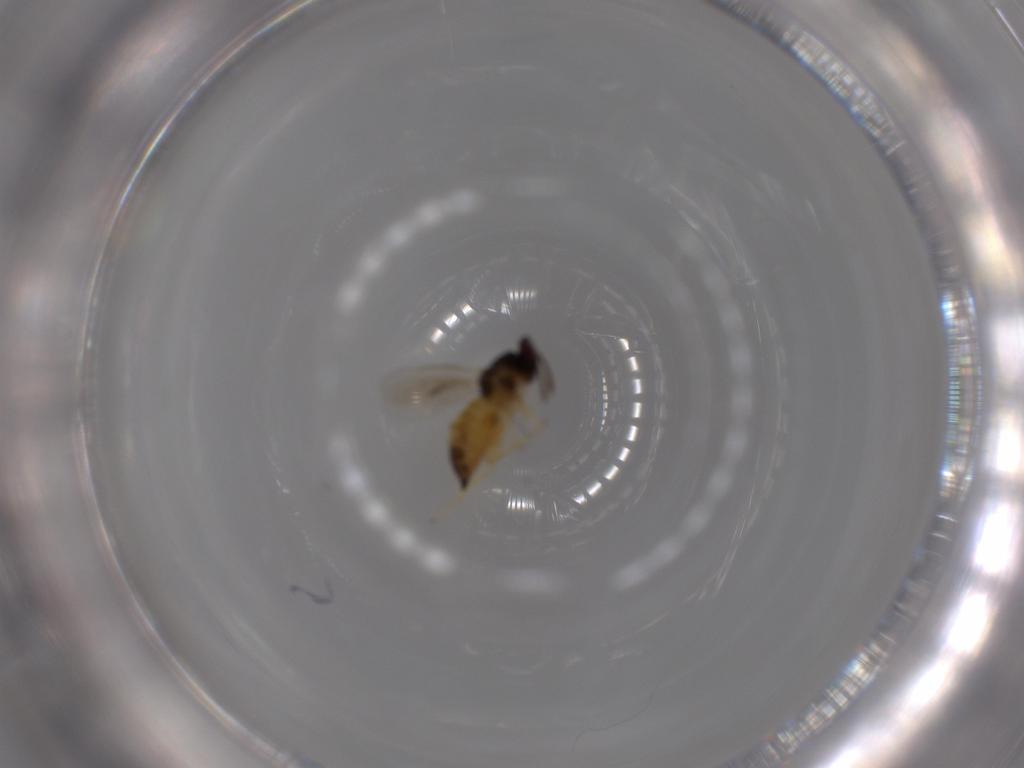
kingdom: Animalia
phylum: Arthropoda
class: Insecta
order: Hymenoptera
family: Eulophidae
